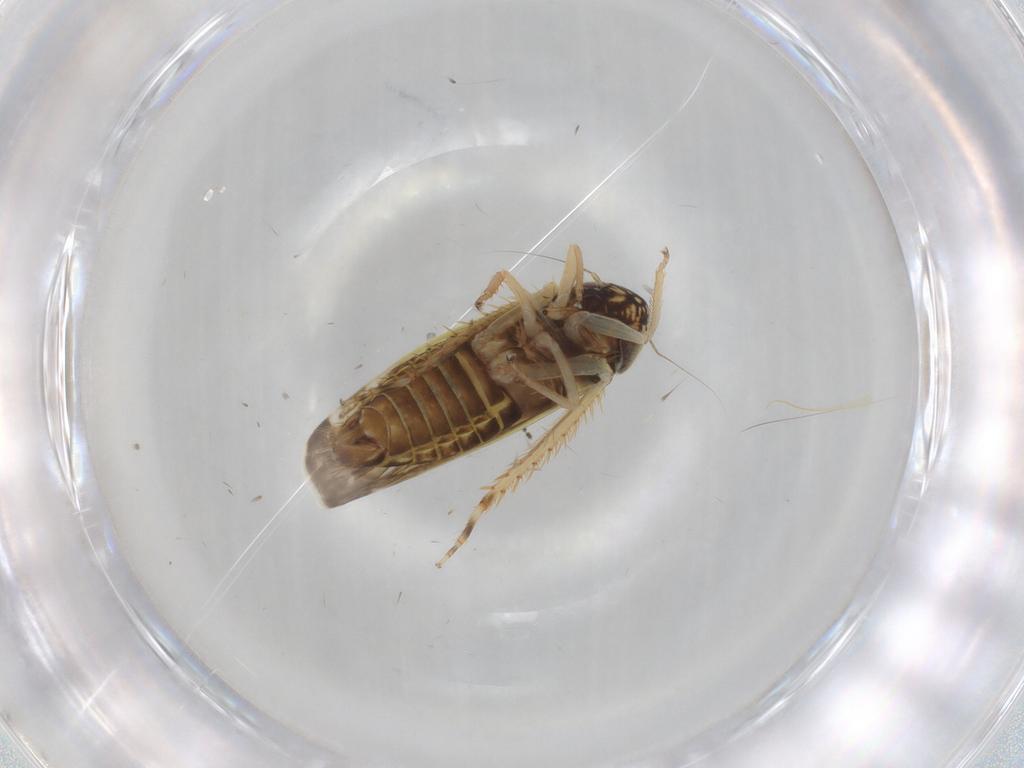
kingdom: Animalia
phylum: Arthropoda
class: Insecta
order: Hemiptera
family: Cicadellidae
